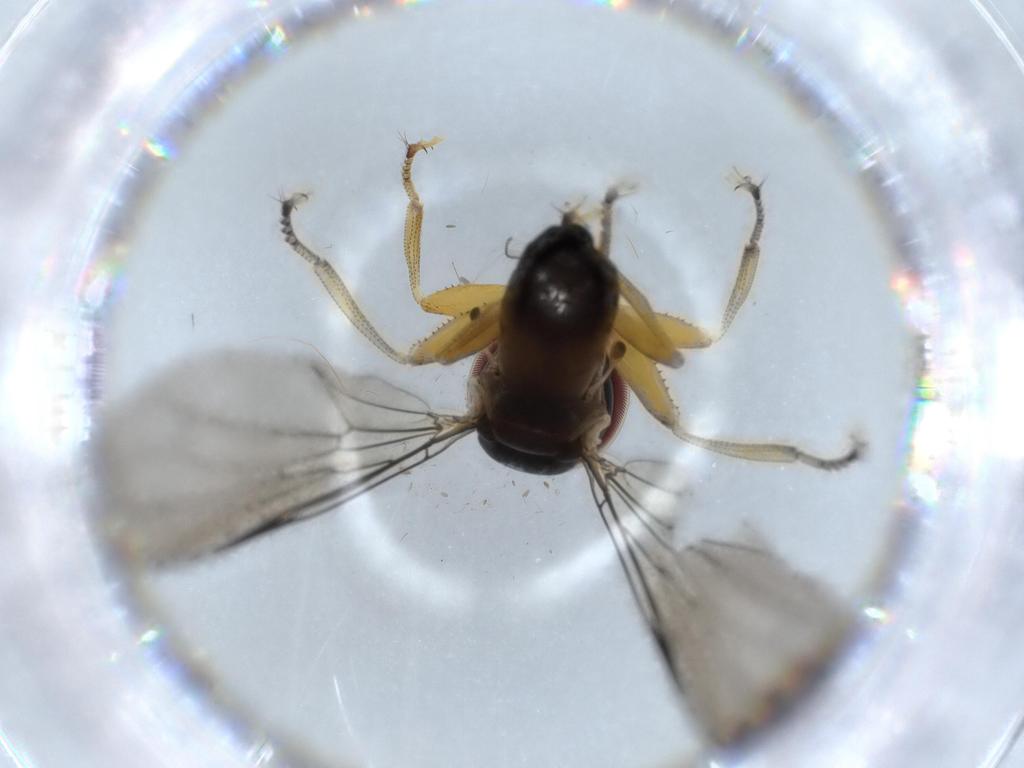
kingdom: Animalia
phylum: Arthropoda
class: Insecta
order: Diptera
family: Pipunculidae
